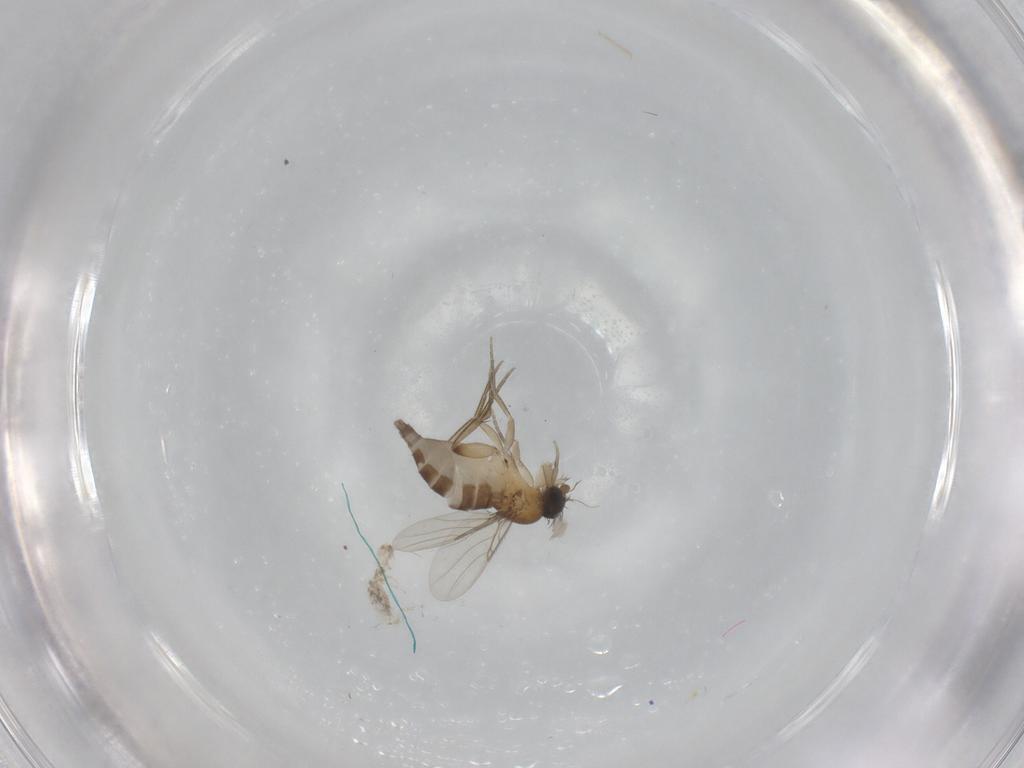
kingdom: Animalia
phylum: Arthropoda
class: Insecta
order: Diptera
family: Phoridae
